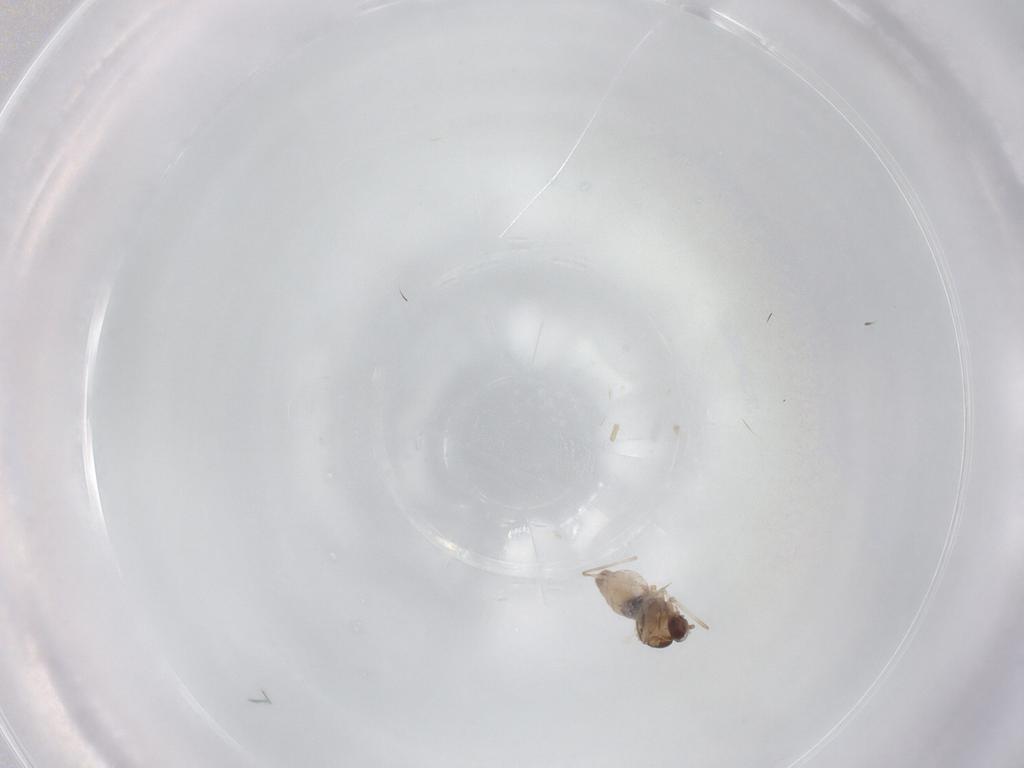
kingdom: Animalia
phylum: Arthropoda
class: Insecta
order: Diptera
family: Cecidomyiidae
